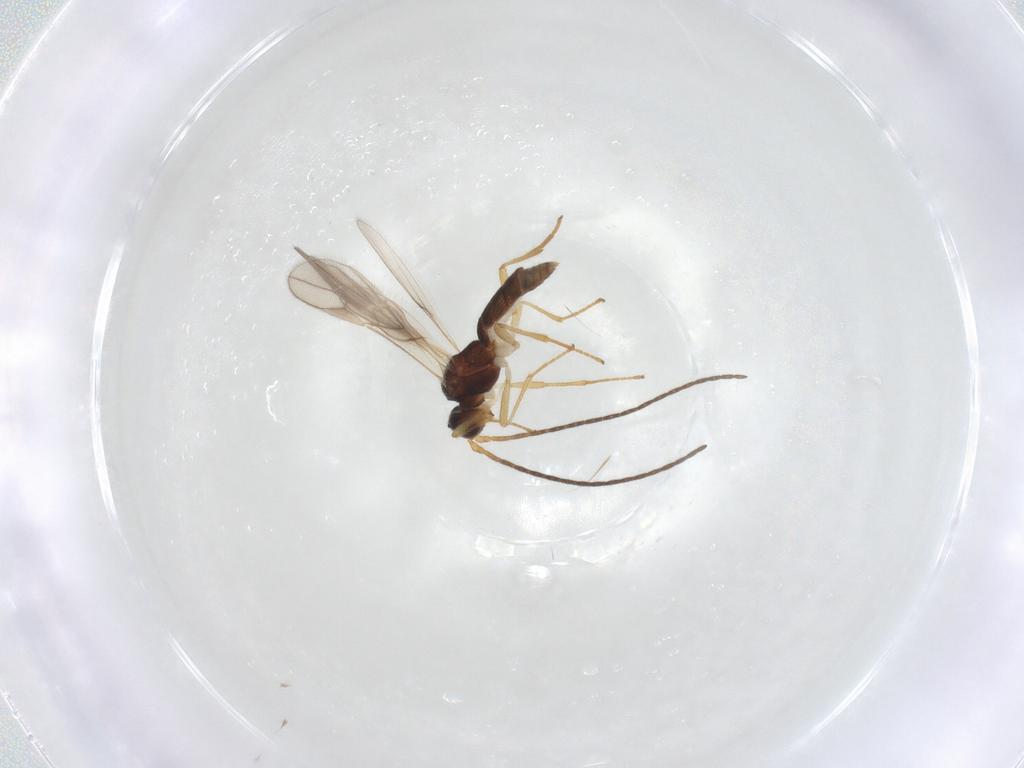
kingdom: Animalia
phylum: Arthropoda
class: Insecta
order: Hymenoptera
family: Braconidae
